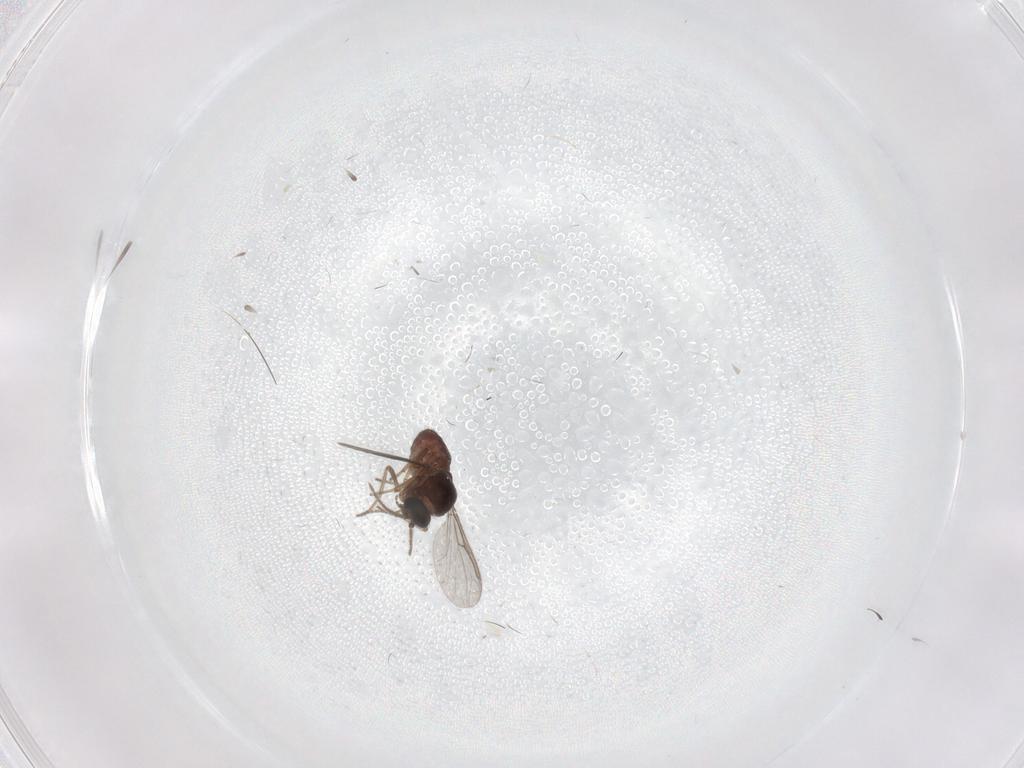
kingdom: Animalia
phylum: Arthropoda
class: Insecta
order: Diptera
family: Ceratopogonidae
